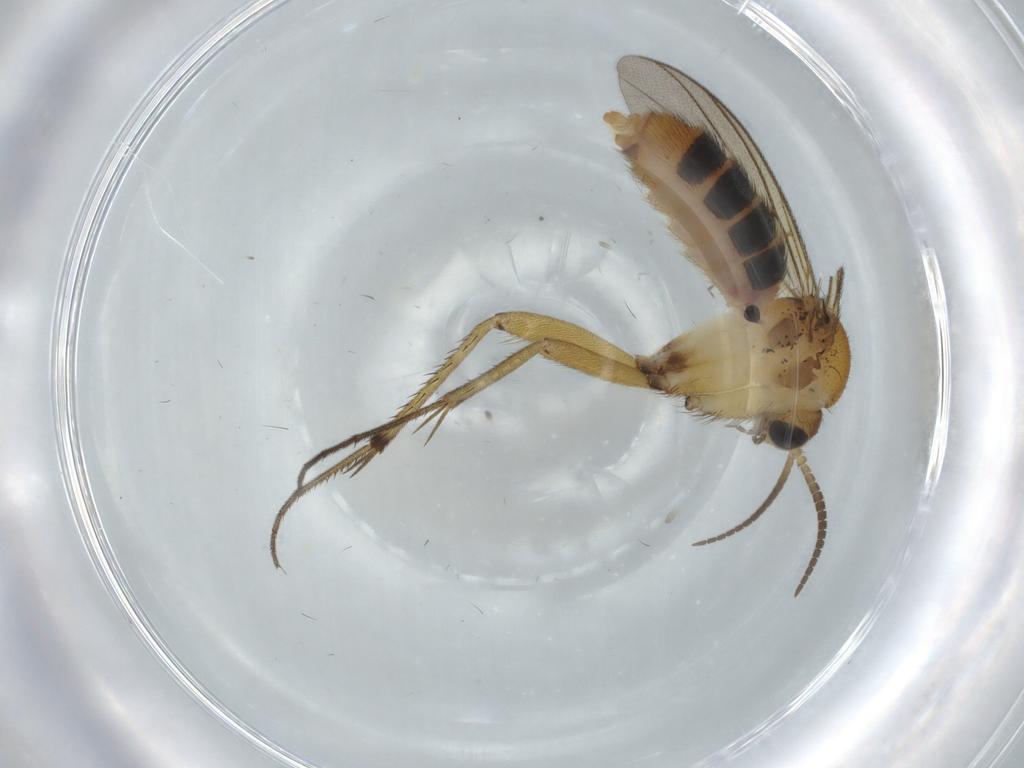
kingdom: Animalia
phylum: Arthropoda
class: Insecta
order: Diptera
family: Mycetophilidae
